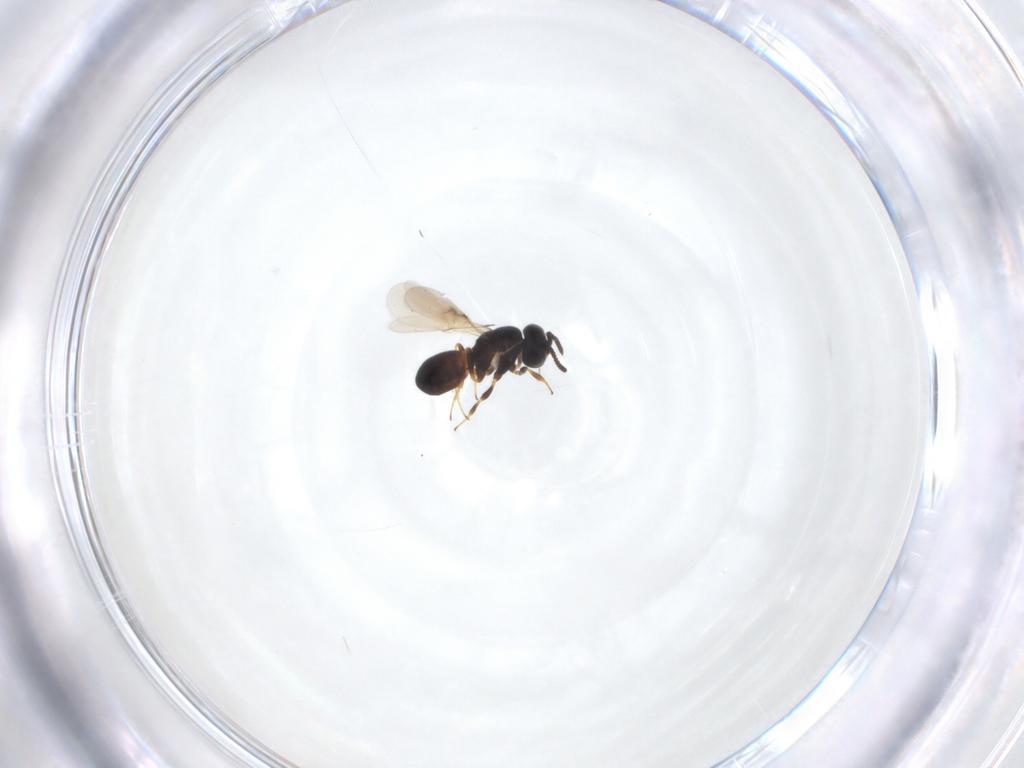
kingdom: Animalia
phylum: Arthropoda
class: Insecta
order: Hymenoptera
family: Scelionidae
